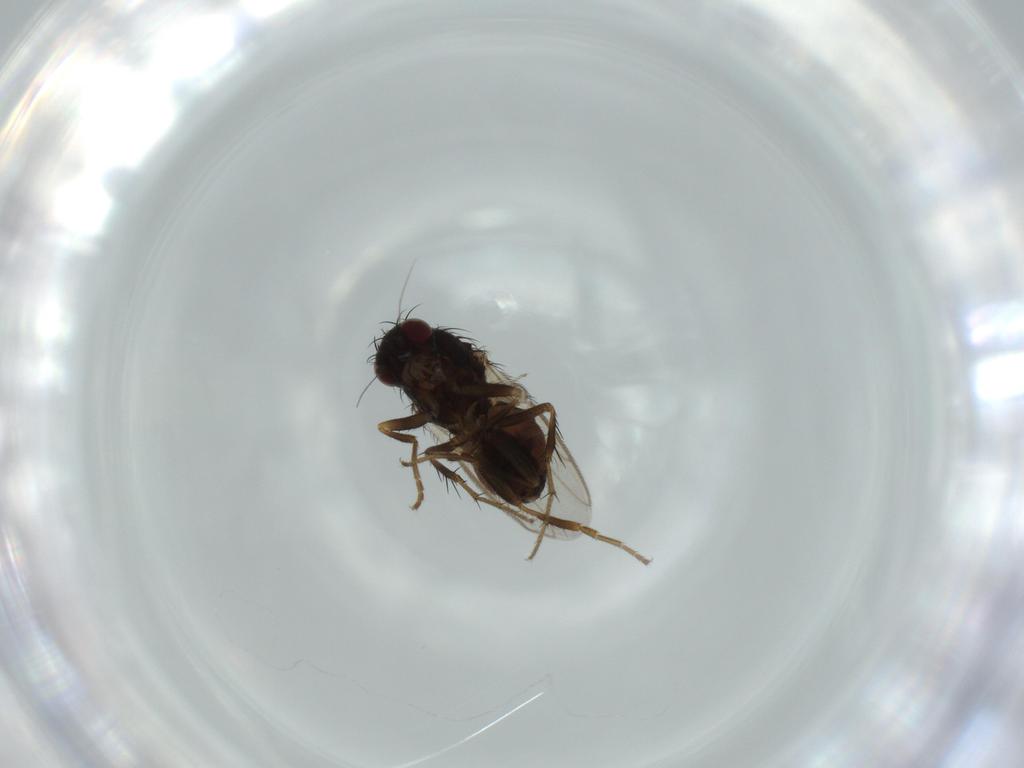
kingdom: Animalia
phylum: Arthropoda
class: Insecta
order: Diptera
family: Sphaeroceridae
